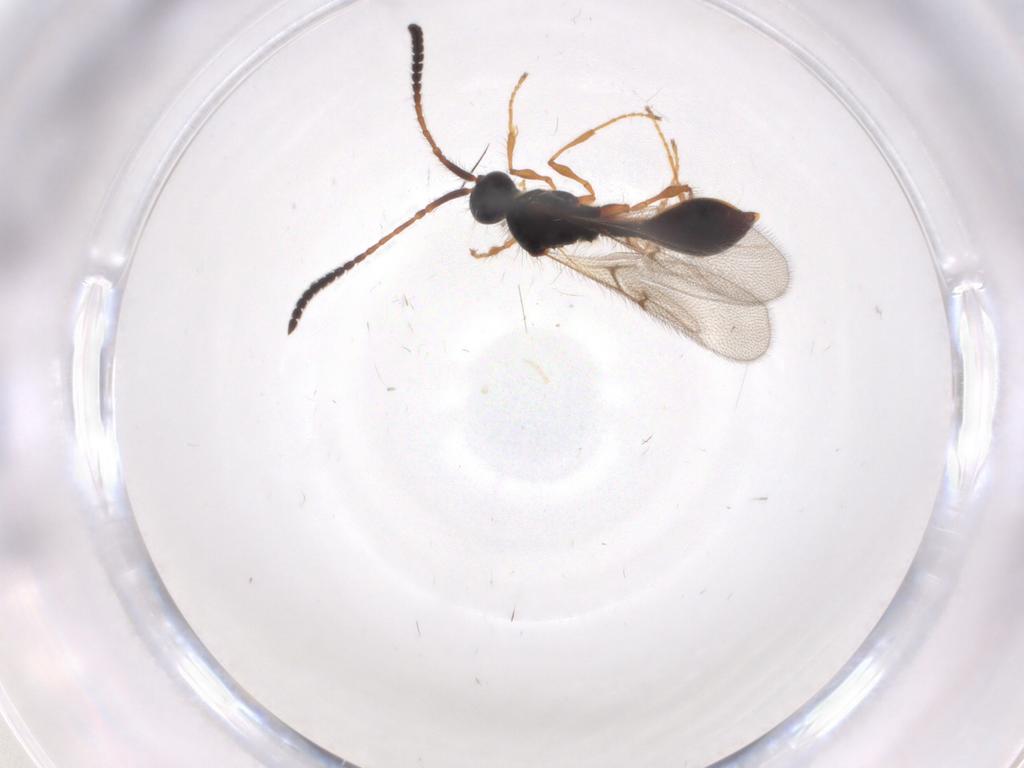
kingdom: Animalia
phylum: Arthropoda
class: Insecta
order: Hymenoptera
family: Diapriidae
